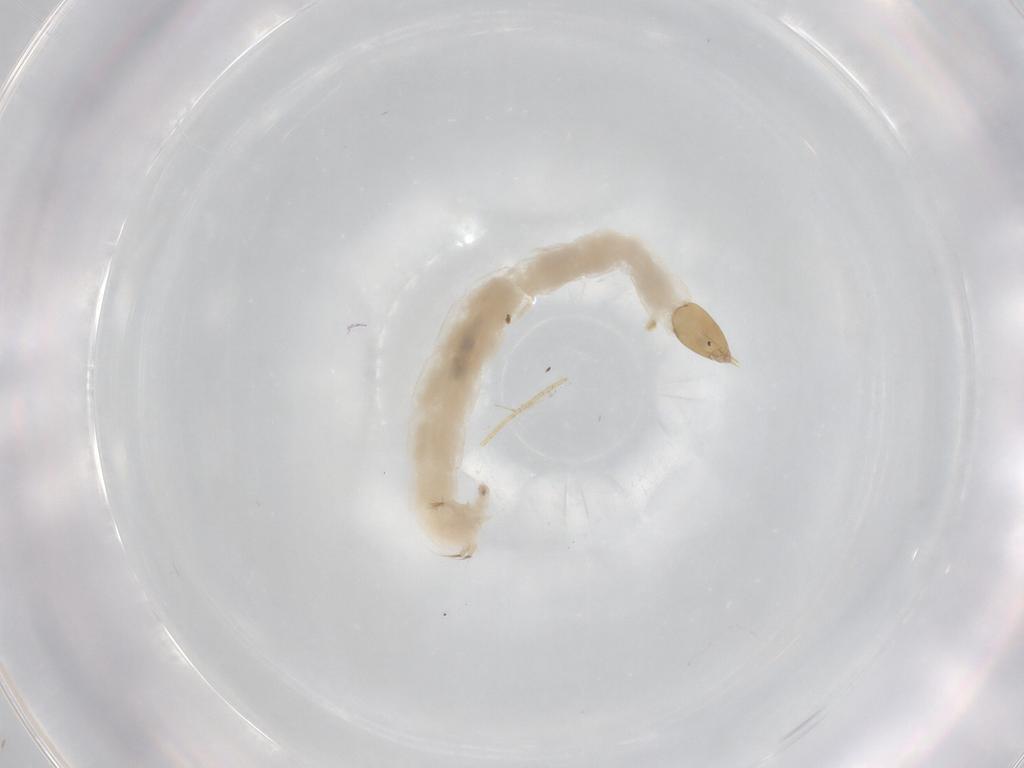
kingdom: Animalia
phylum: Arthropoda
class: Insecta
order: Diptera
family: Chironomidae
